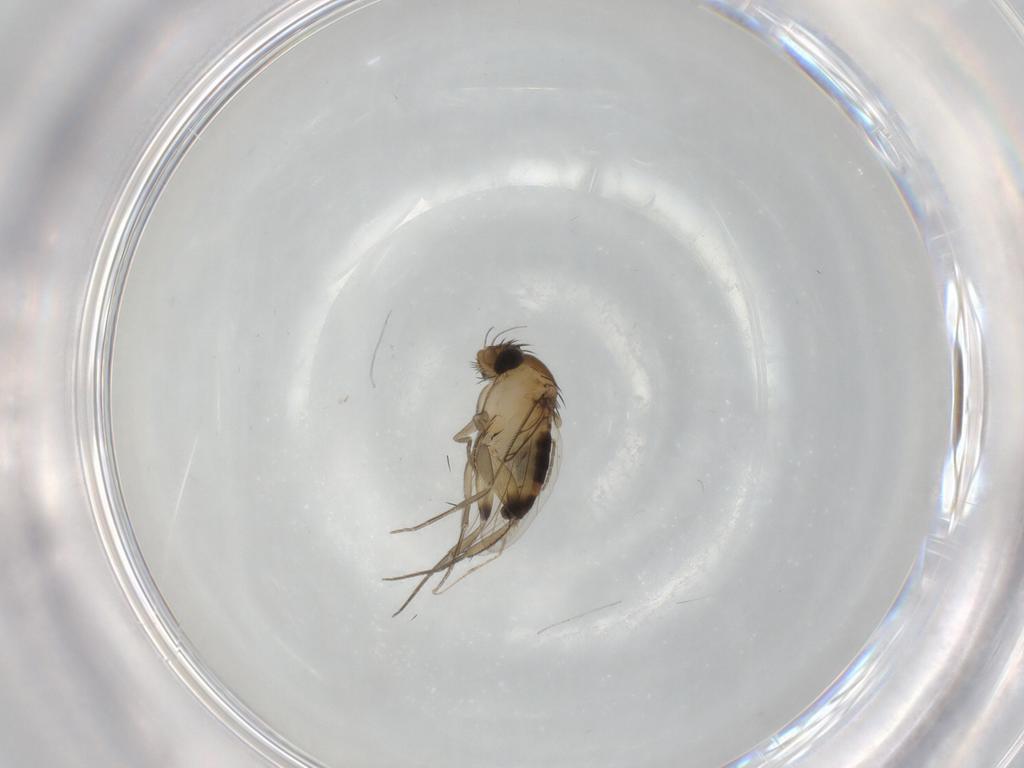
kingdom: Animalia
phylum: Arthropoda
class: Insecta
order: Diptera
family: Phoridae
